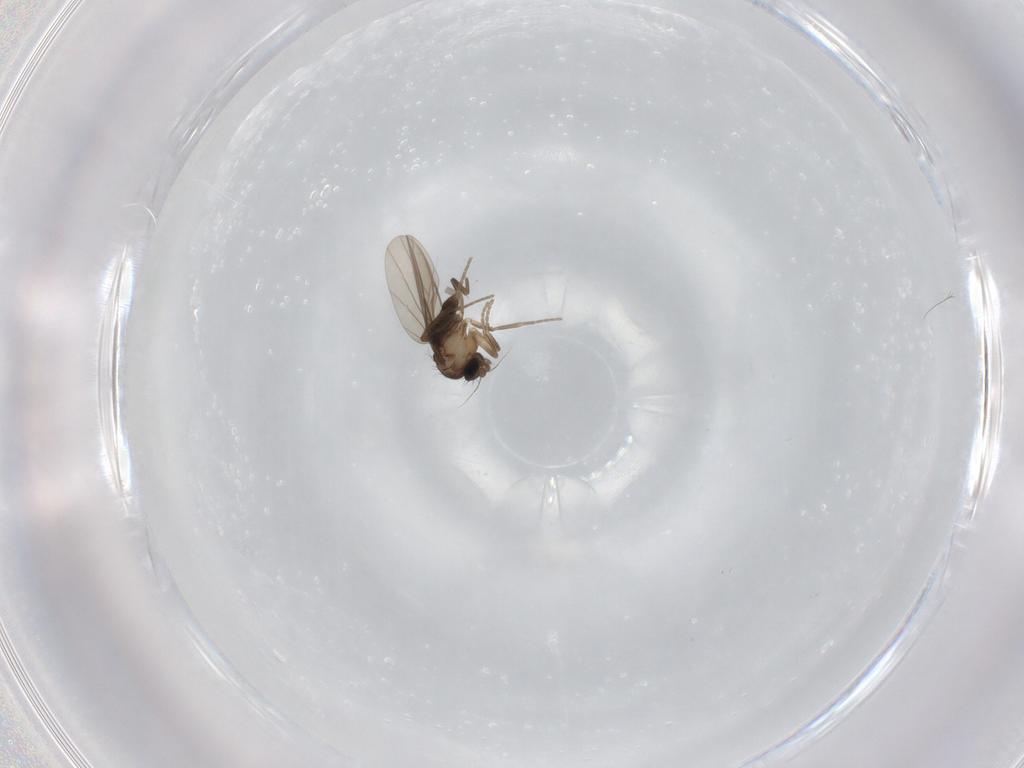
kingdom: Animalia
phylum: Arthropoda
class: Insecta
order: Diptera
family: Phoridae
